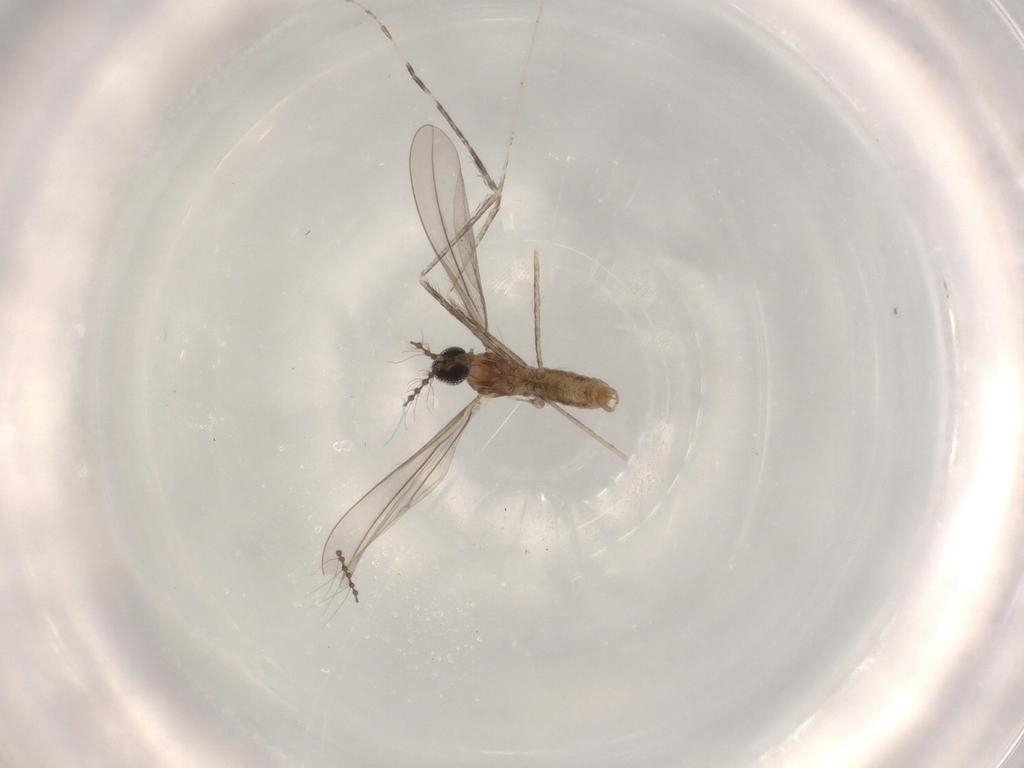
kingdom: Animalia
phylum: Arthropoda
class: Insecta
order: Diptera
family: Cecidomyiidae
